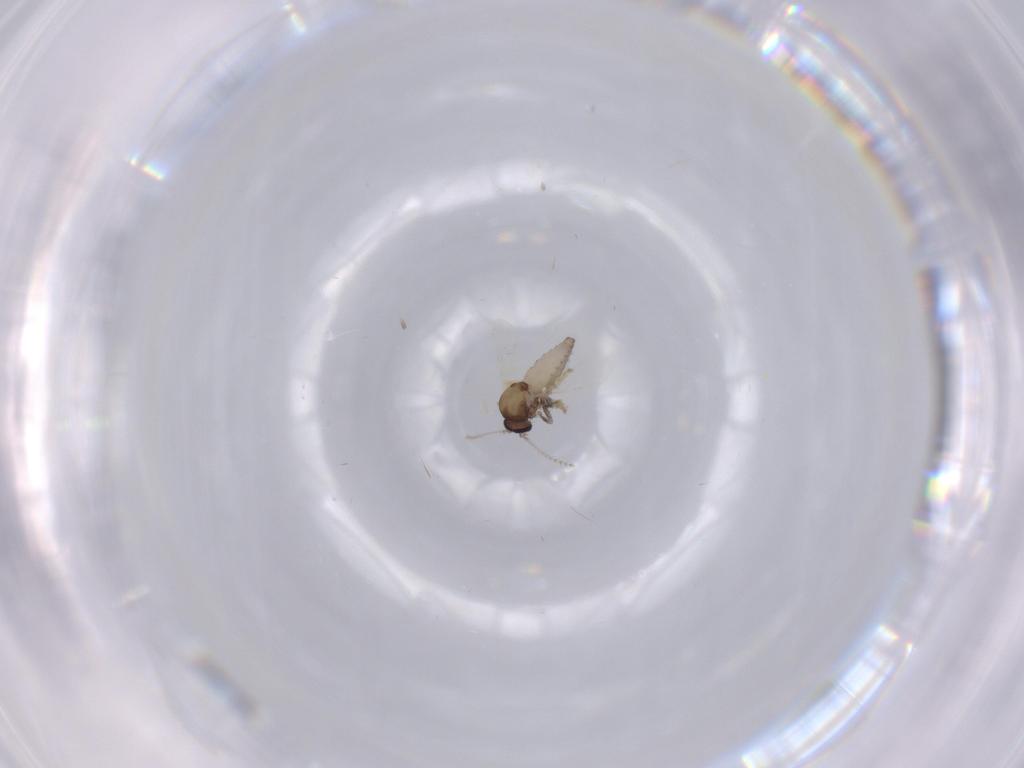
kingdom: Animalia
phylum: Arthropoda
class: Insecta
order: Diptera
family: Ceratopogonidae
